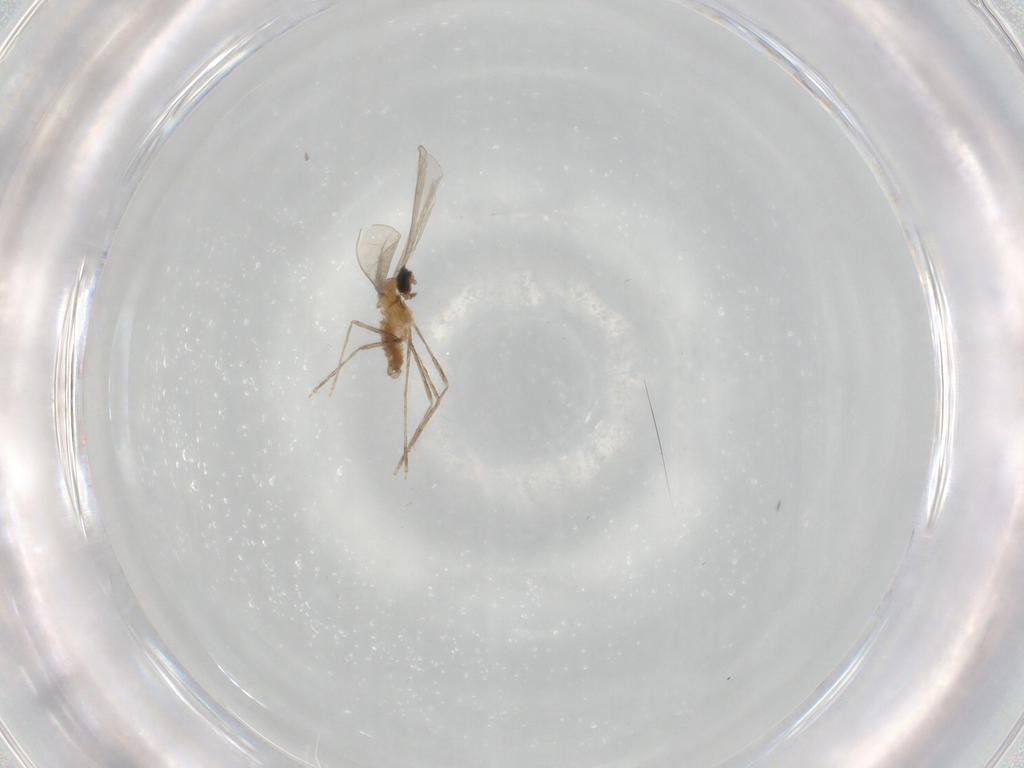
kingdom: Animalia
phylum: Arthropoda
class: Insecta
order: Diptera
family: Cecidomyiidae
